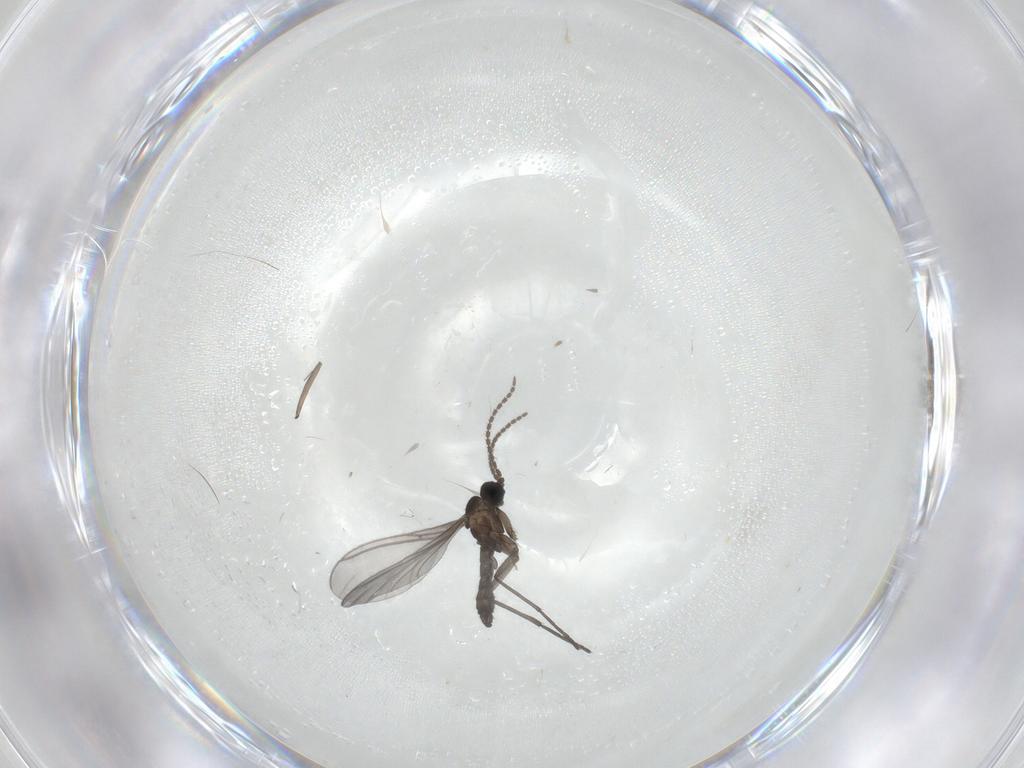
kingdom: Animalia
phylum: Arthropoda
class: Insecta
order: Diptera
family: Chironomidae
